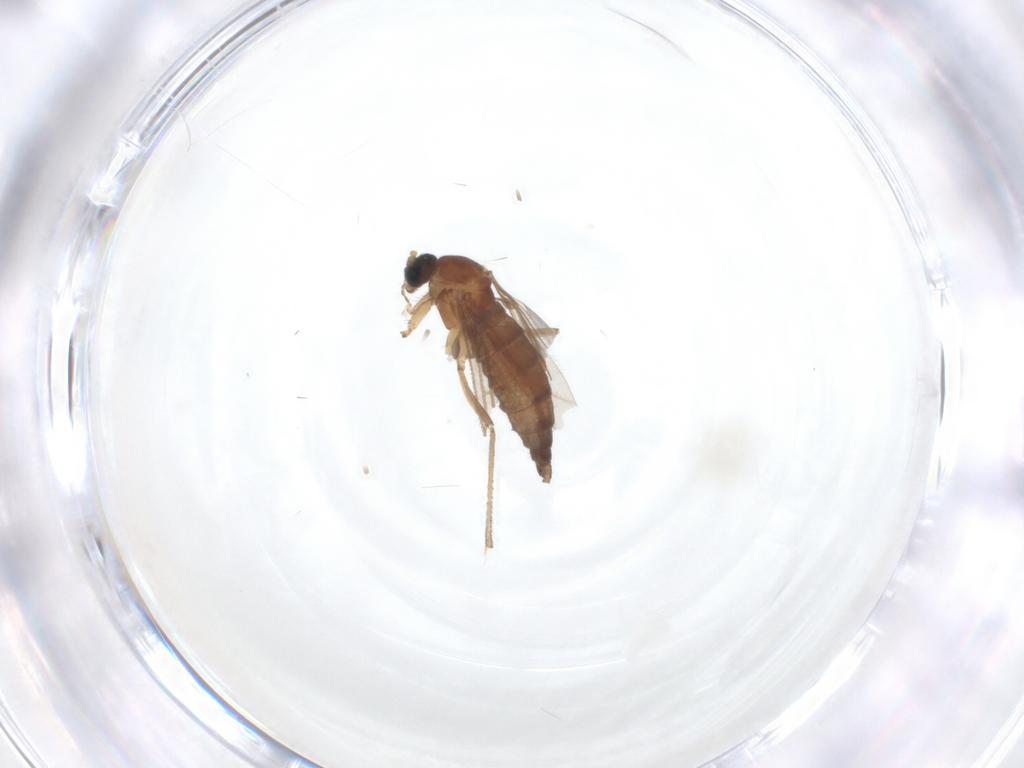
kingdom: Animalia
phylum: Arthropoda
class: Insecta
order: Diptera
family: Sciaridae
